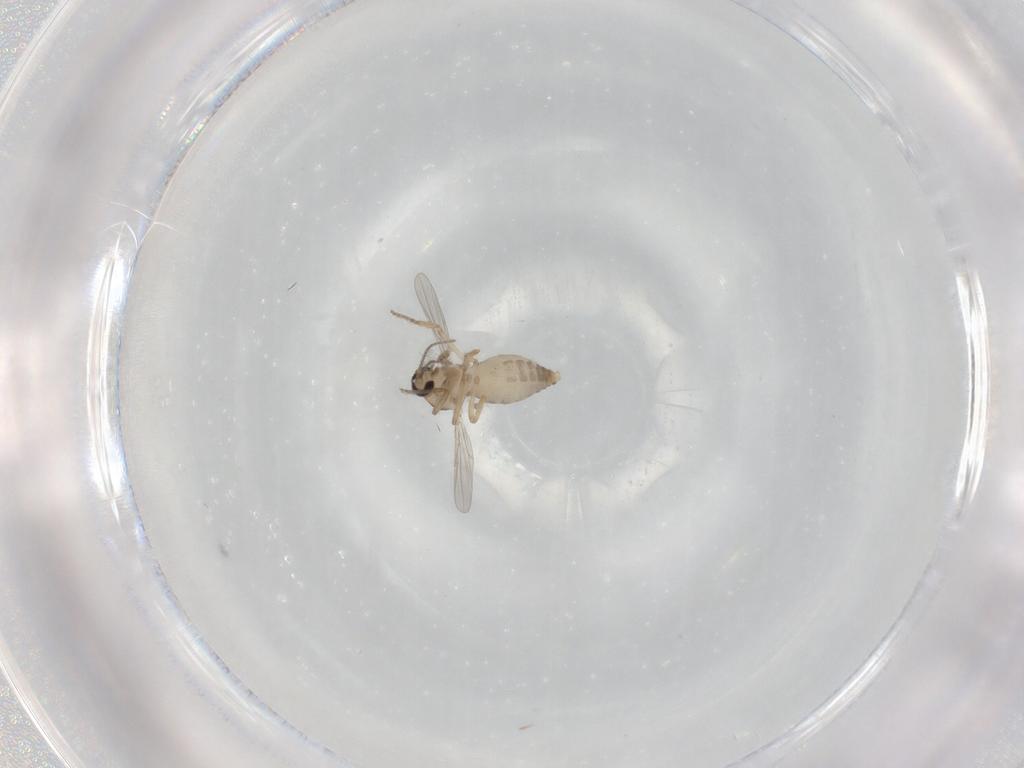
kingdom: Animalia
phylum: Arthropoda
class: Insecta
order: Diptera
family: Ceratopogonidae
